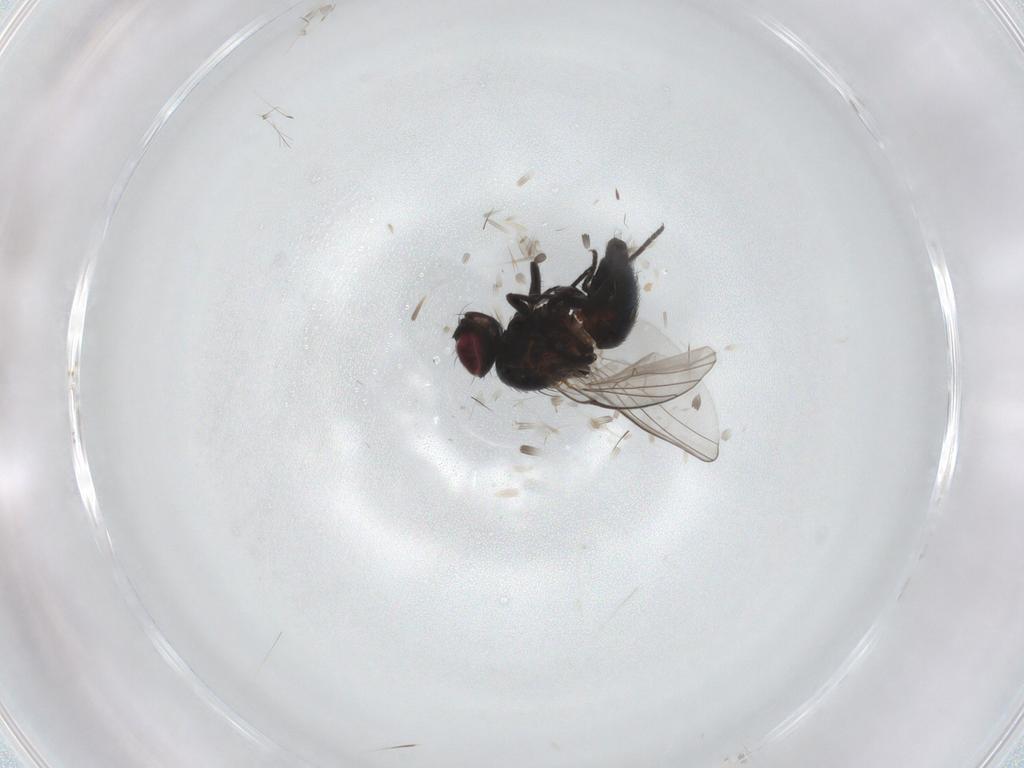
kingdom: Animalia
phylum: Arthropoda
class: Insecta
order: Diptera
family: Agromyzidae
